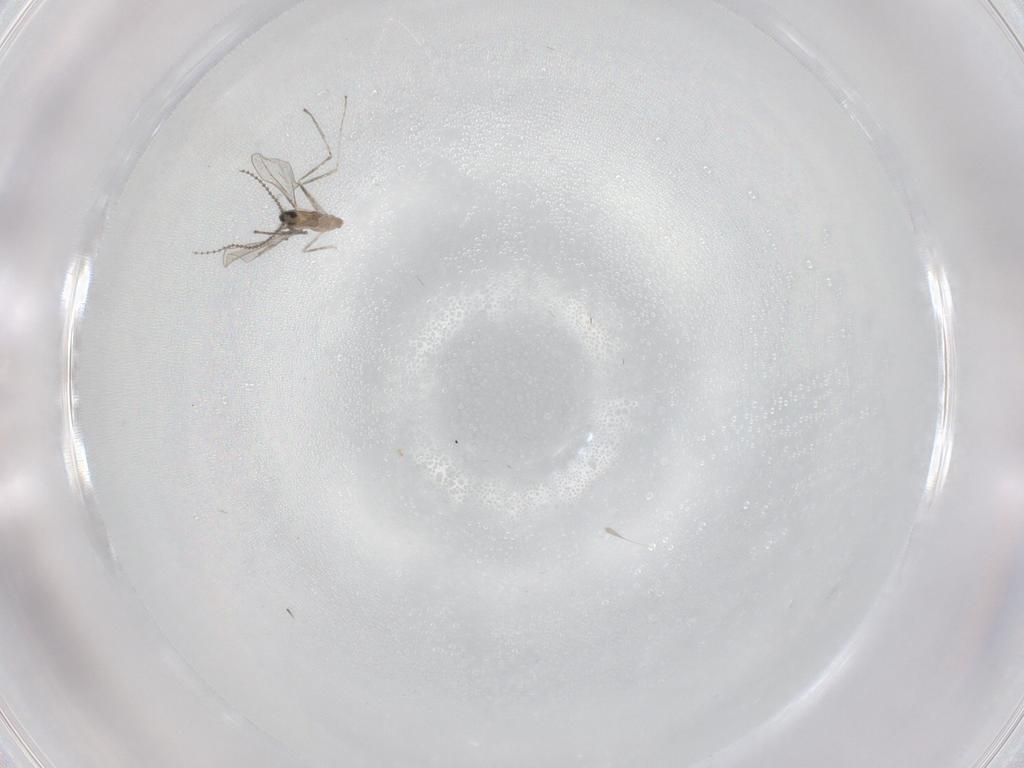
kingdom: Animalia
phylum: Arthropoda
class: Insecta
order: Diptera
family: Cecidomyiidae
